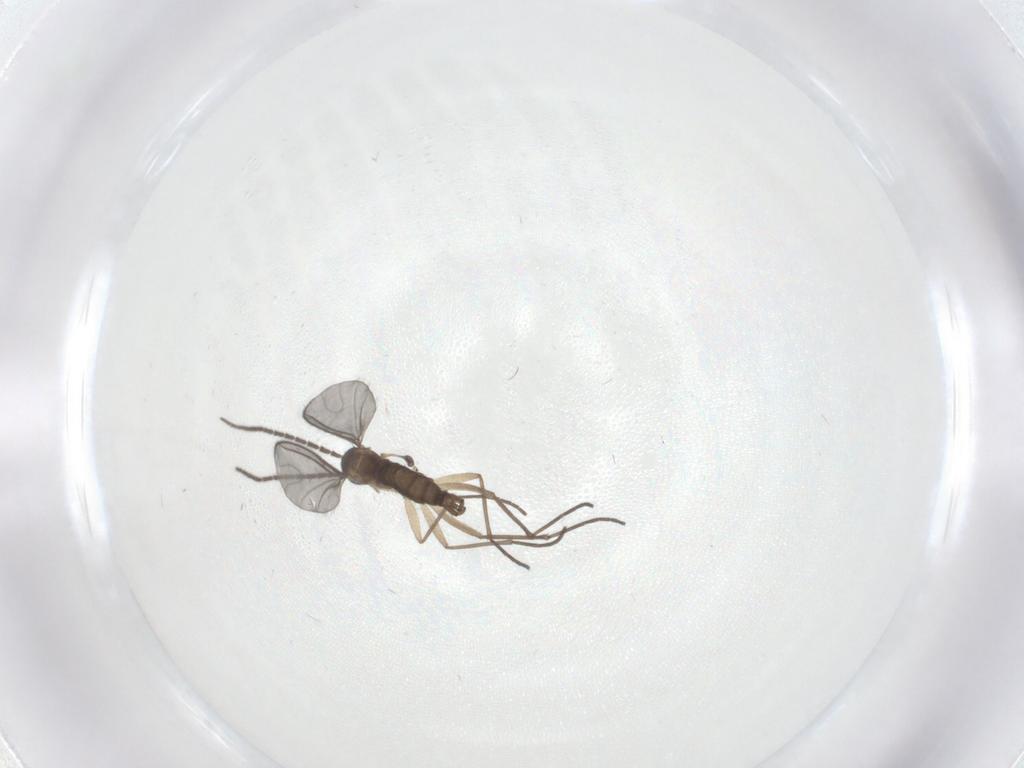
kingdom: Animalia
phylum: Arthropoda
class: Insecta
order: Diptera
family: Sciaridae
